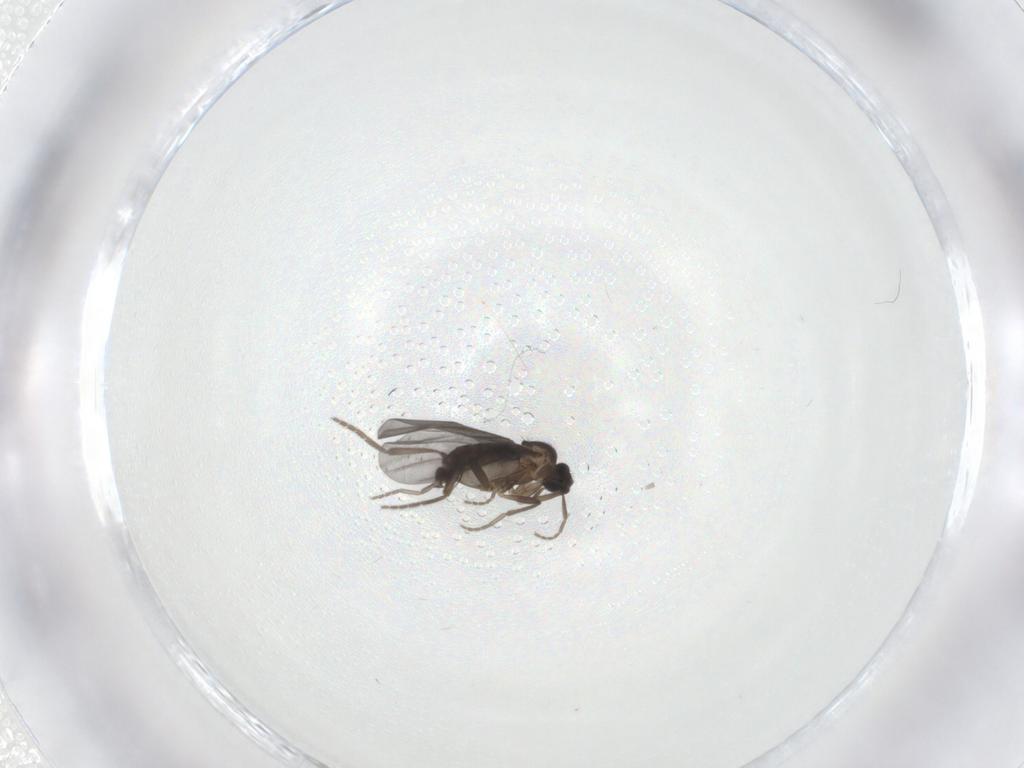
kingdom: Animalia
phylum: Arthropoda
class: Insecta
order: Diptera
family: Phoridae
